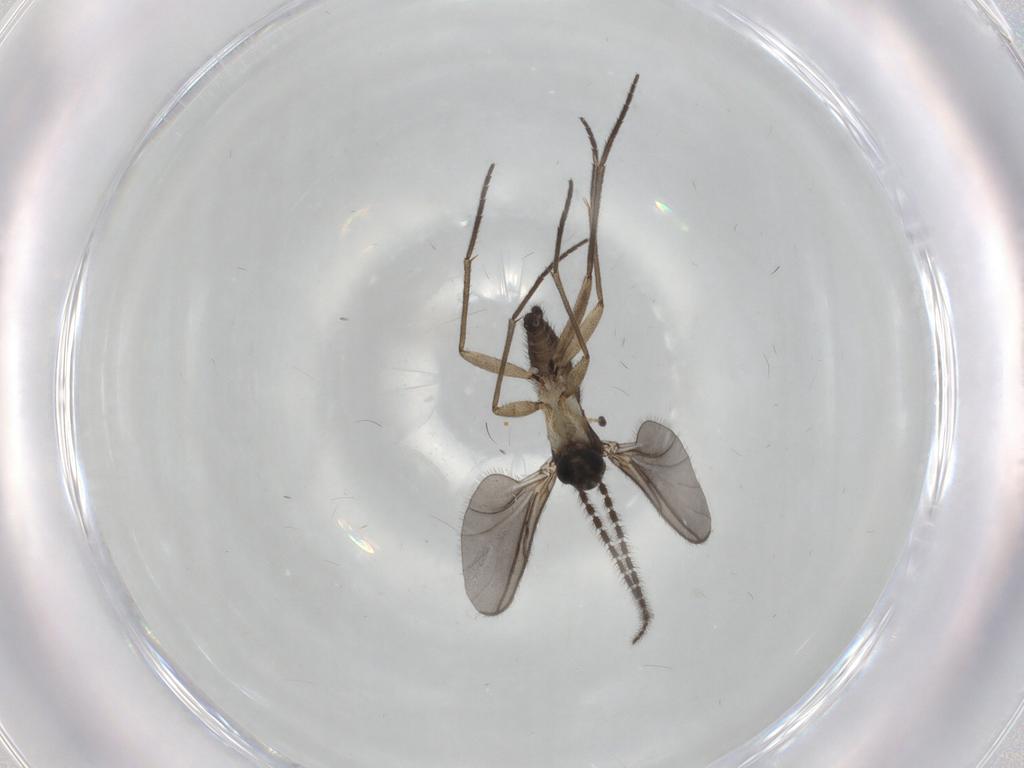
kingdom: Animalia
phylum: Arthropoda
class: Insecta
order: Diptera
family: Sciaridae
